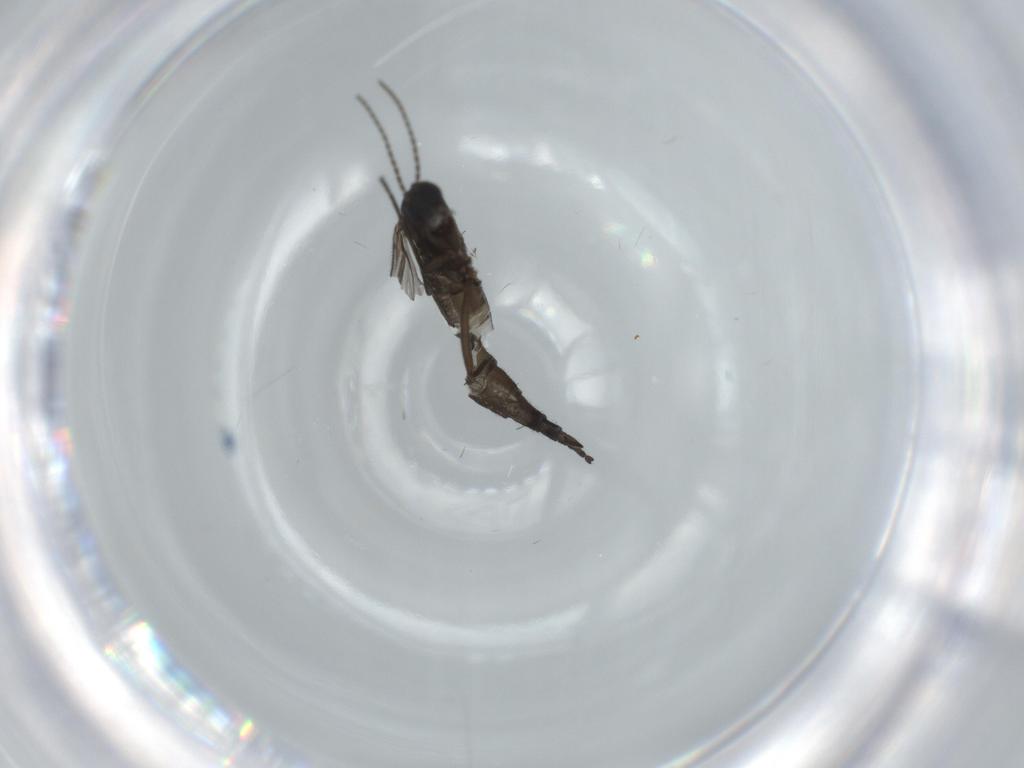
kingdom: Animalia
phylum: Arthropoda
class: Insecta
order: Diptera
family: Sciaridae
